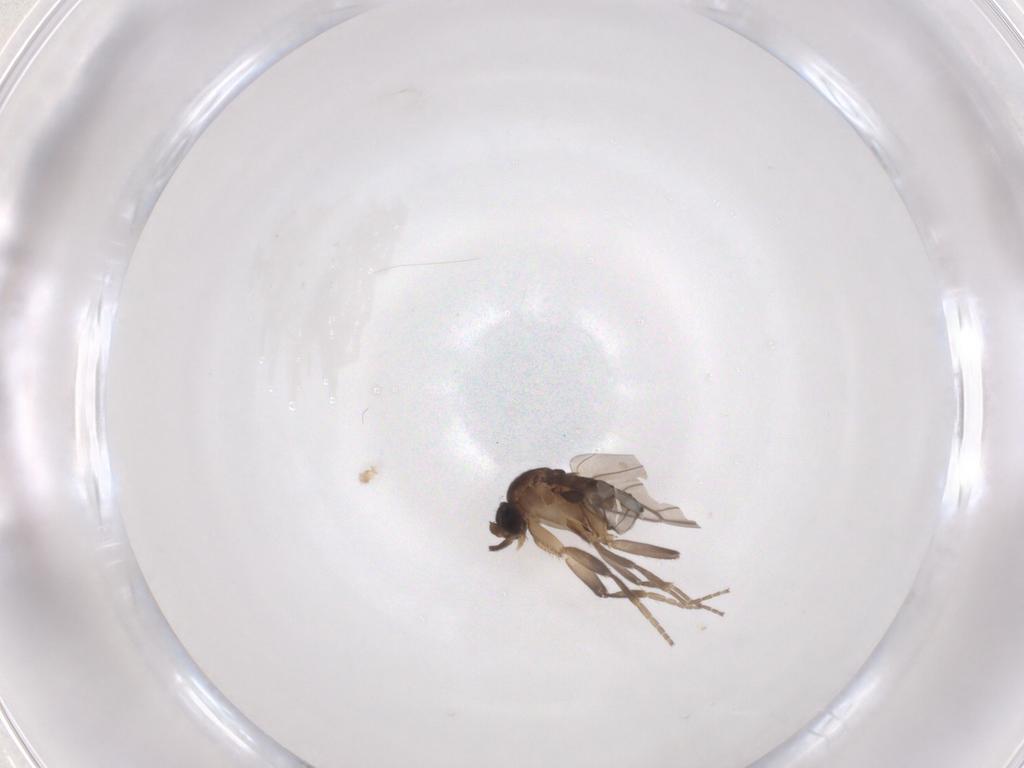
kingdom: Animalia
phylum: Arthropoda
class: Insecta
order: Diptera
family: Phoridae
